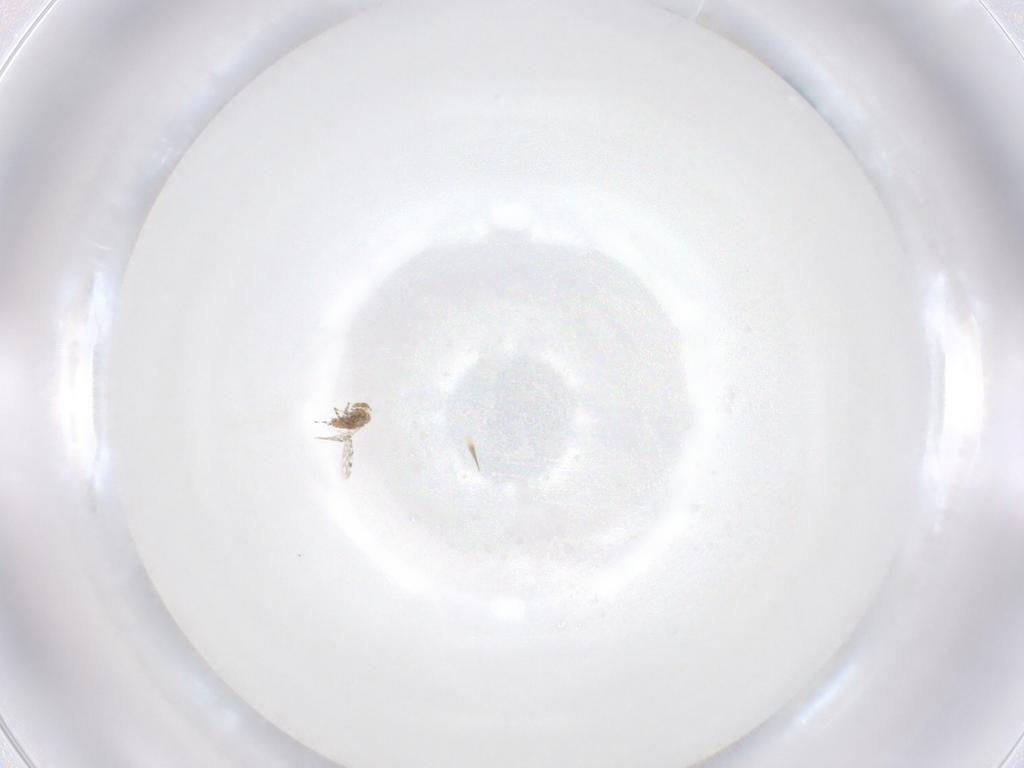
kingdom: Animalia
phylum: Arthropoda
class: Insecta
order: Hymenoptera
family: Aphelinidae
